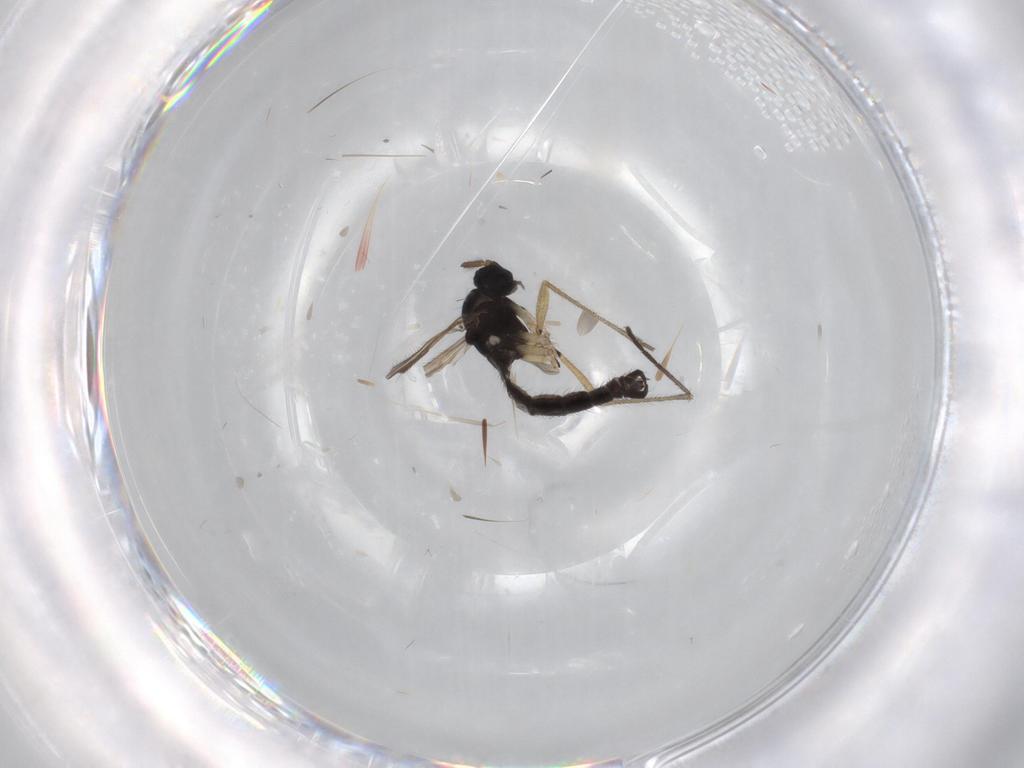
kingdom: Animalia
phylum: Arthropoda
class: Insecta
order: Diptera
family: Sciaridae
